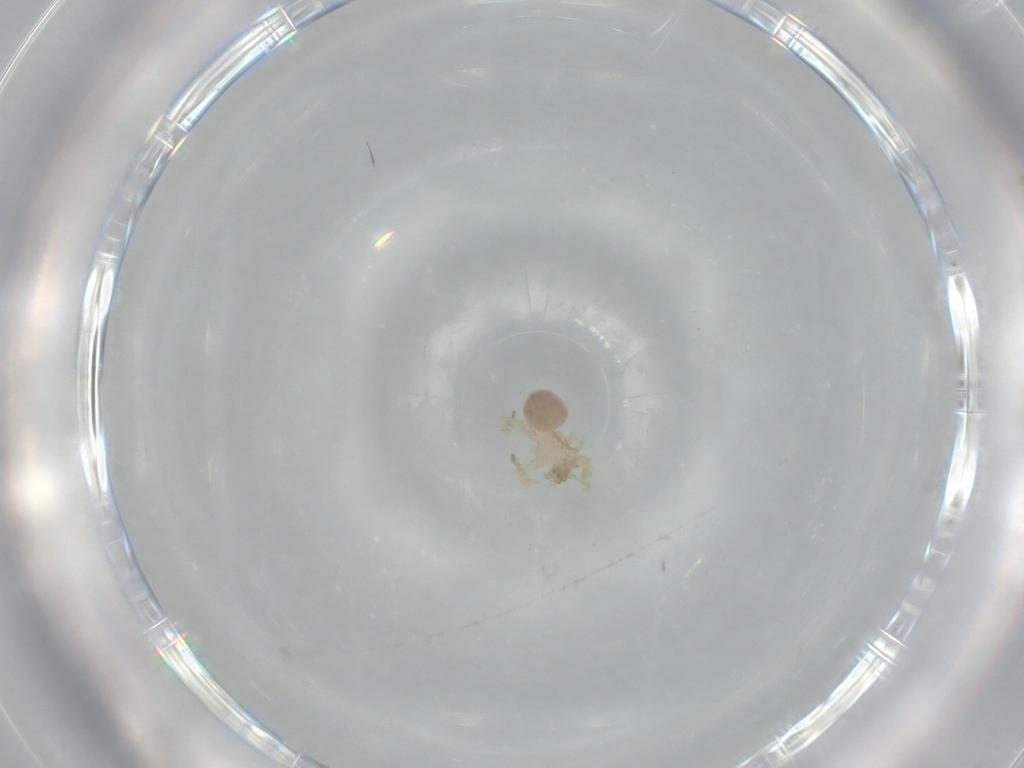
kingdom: Animalia
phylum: Arthropoda
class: Arachnida
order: Araneae
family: Oonopidae
